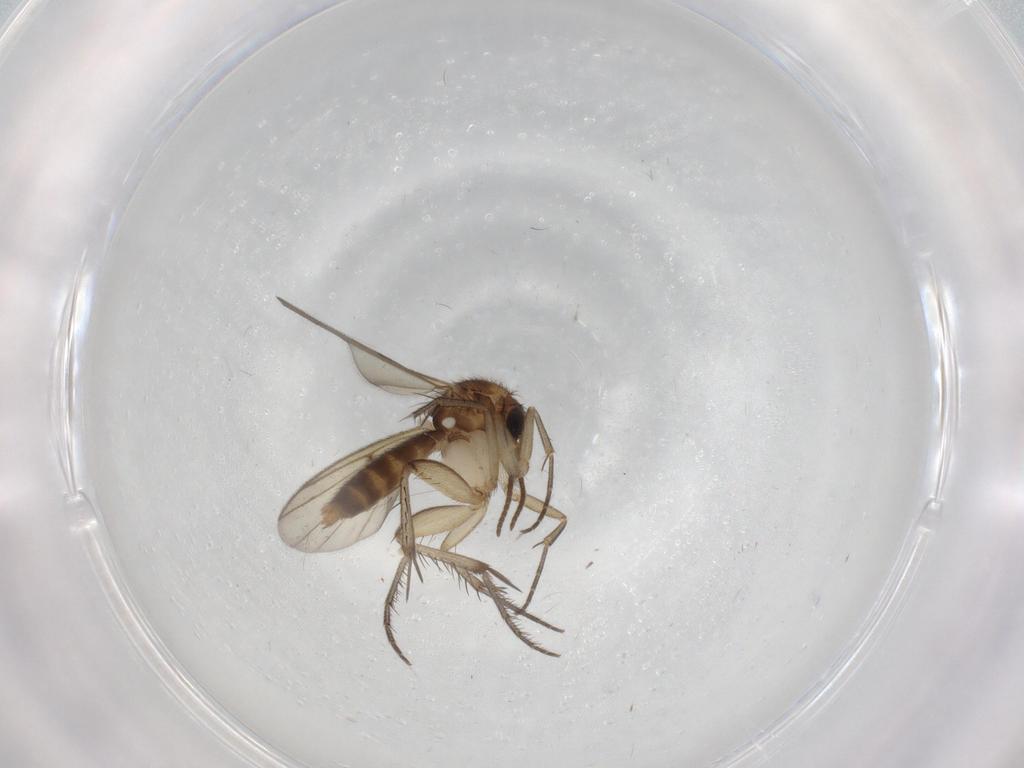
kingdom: Animalia
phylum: Arthropoda
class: Insecta
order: Diptera
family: Mycetophilidae
